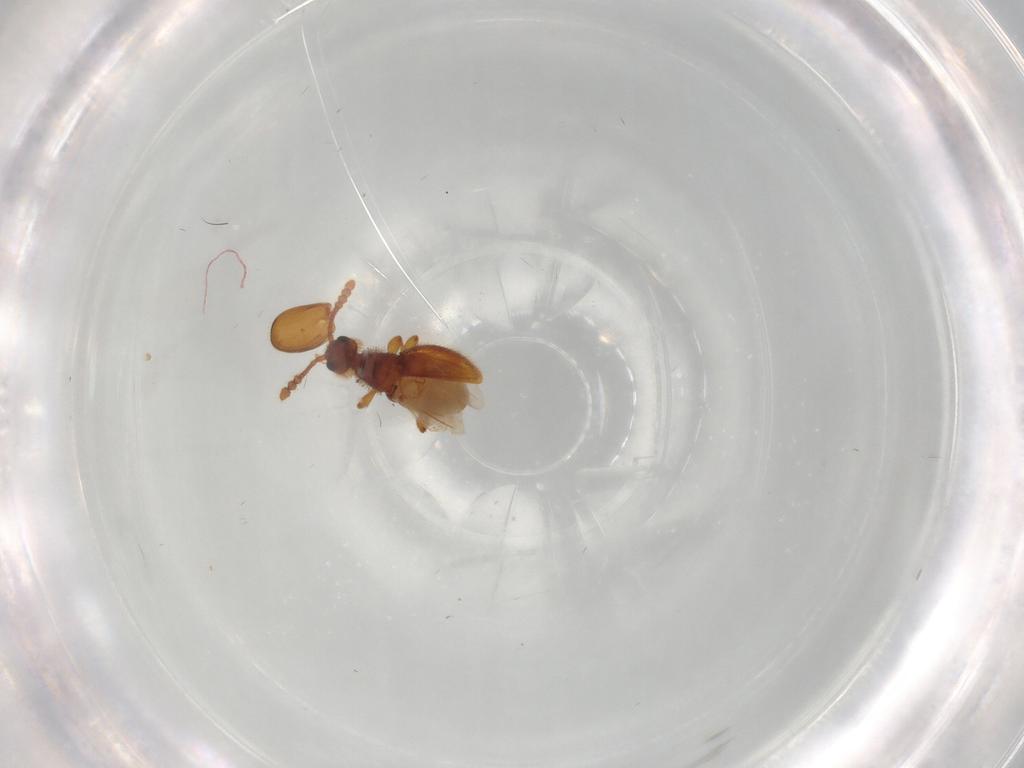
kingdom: Animalia
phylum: Arthropoda
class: Insecta
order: Coleoptera
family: Staphylinidae
